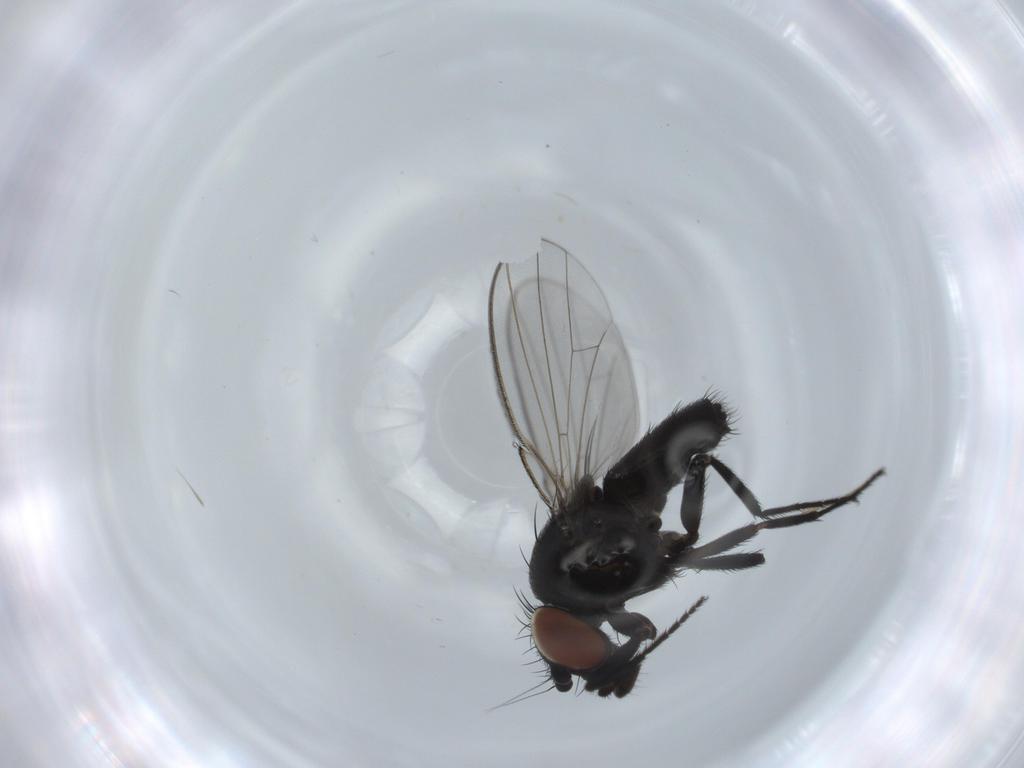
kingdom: Animalia
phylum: Arthropoda
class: Insecta
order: Diptera
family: Milichiidae
